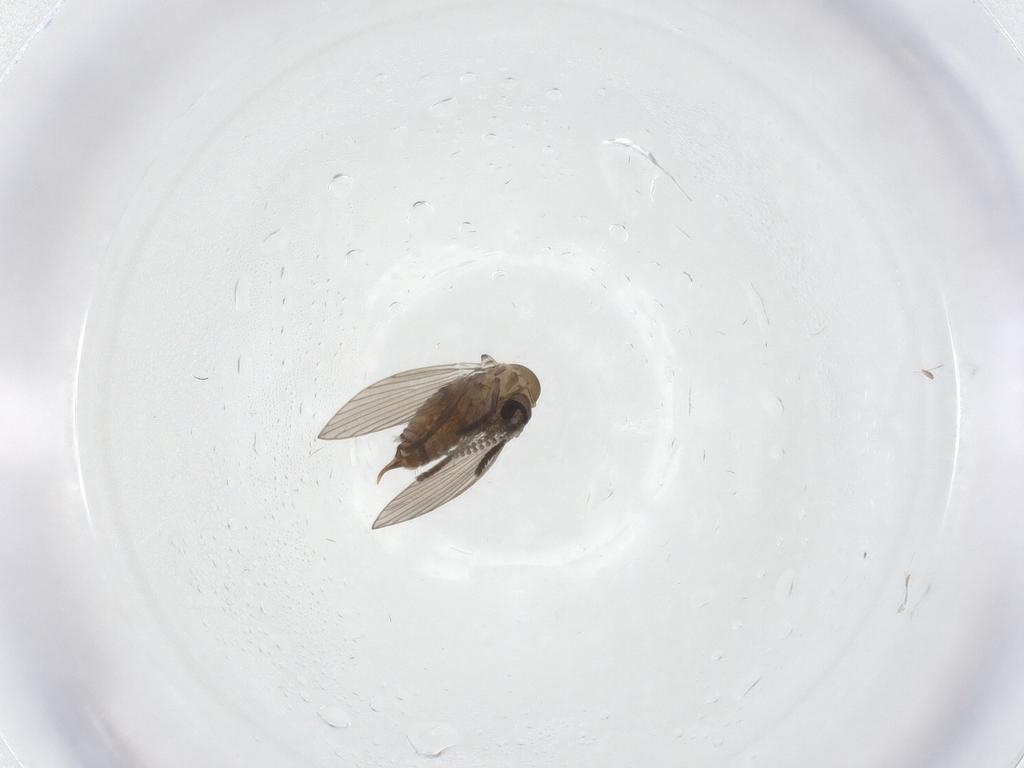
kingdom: Animalia
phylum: Arthropoda
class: Insecta
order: Diptera
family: Psychodidae
